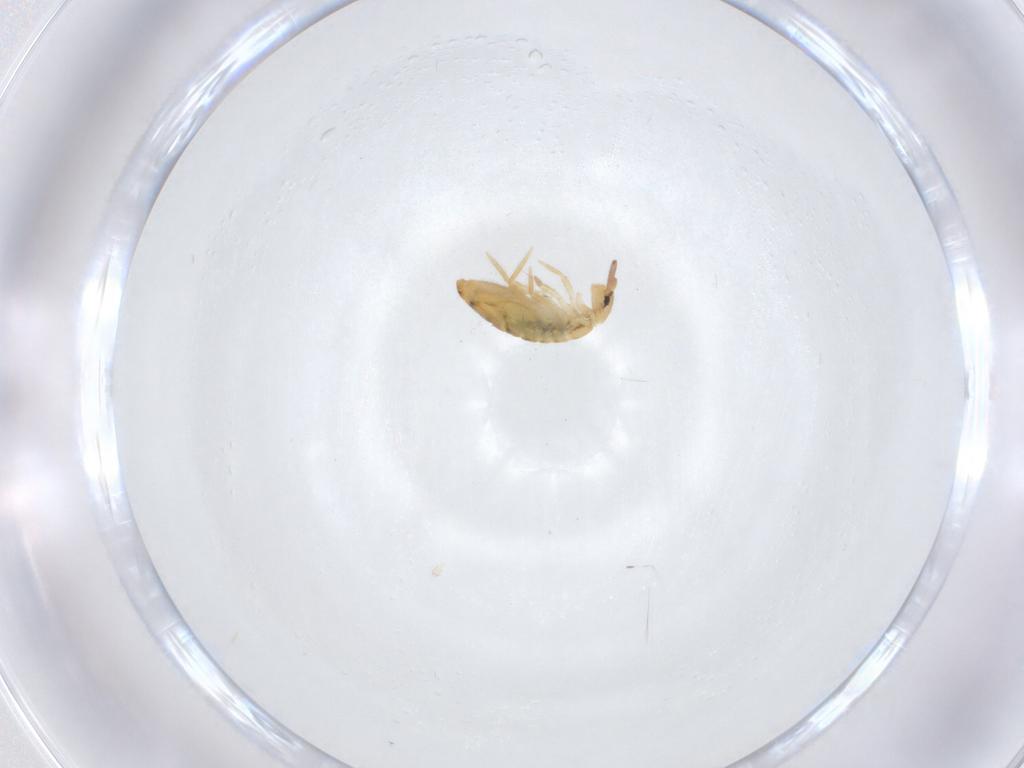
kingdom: Animalia
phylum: Arthropoda
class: Collembola
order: Entomobryomorpha
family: Entomobryidae
